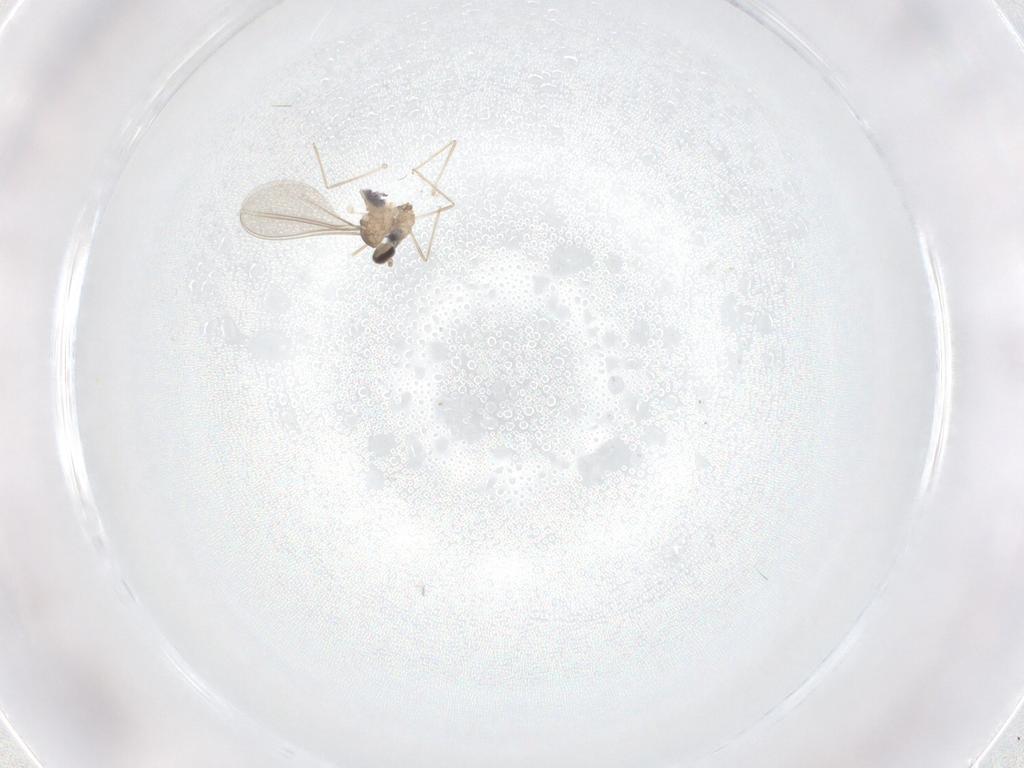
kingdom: Animalia
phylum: Arthropoda
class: Insecta
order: Diptera
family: Cecidomyiidae
